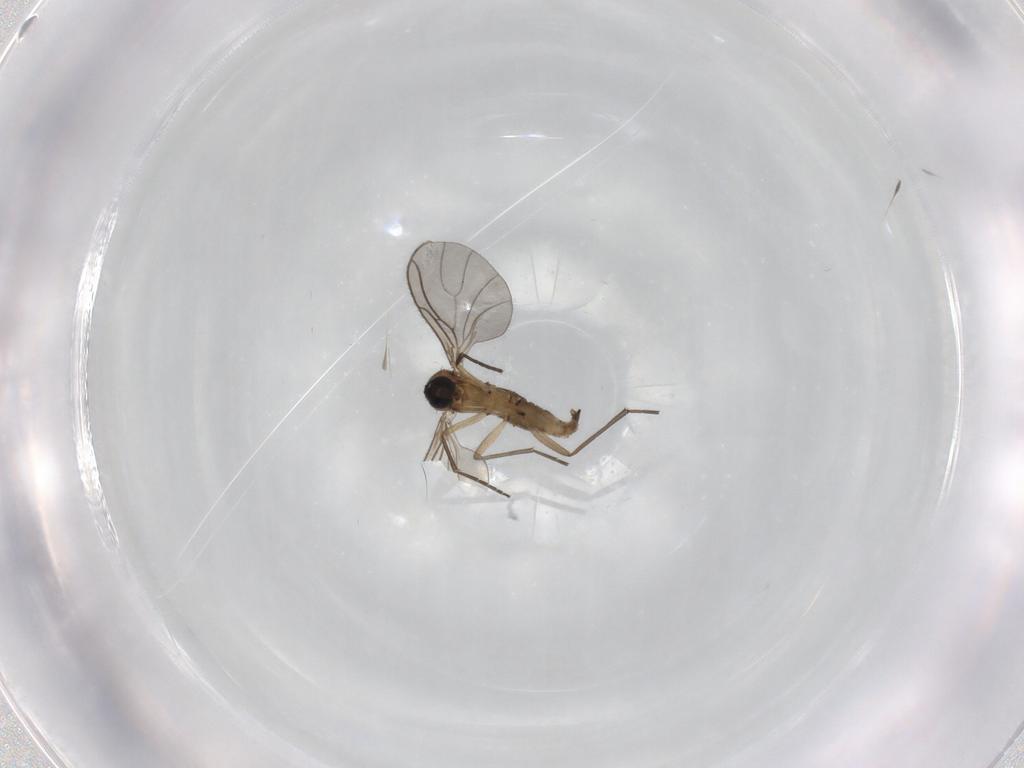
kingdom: Animalia
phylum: Arthropoda
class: Insecta
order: Diptera
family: Sciaridae
